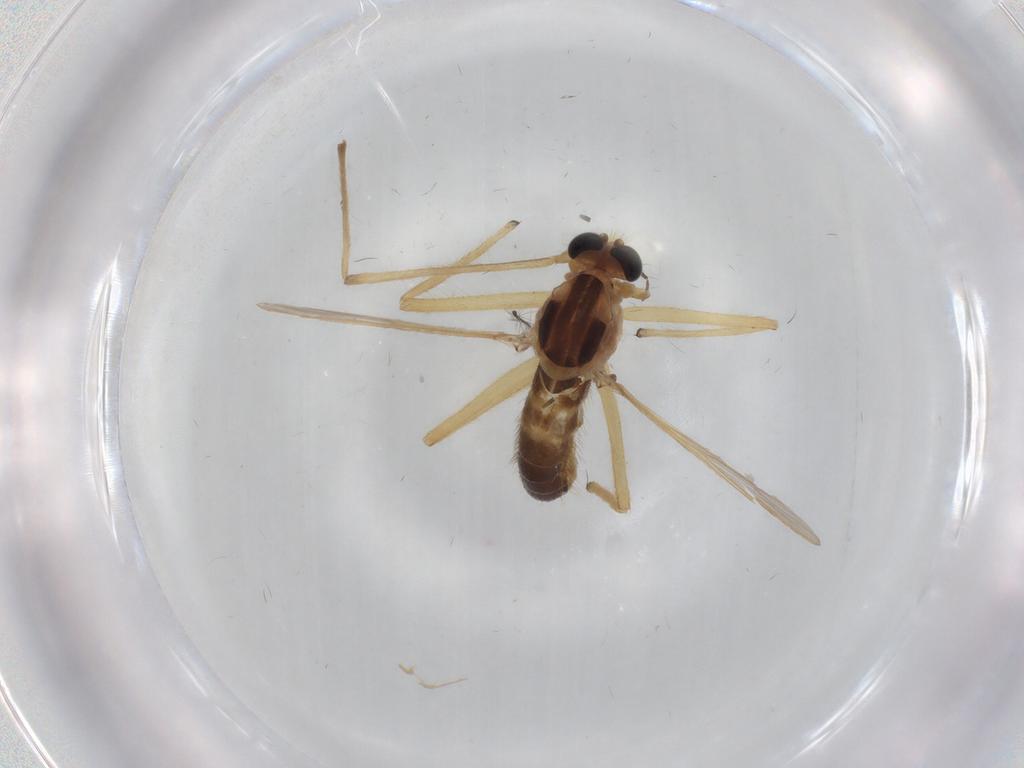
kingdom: Animalia
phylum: Arthropoda
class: Insecta
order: Diptera
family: Chironomidae
